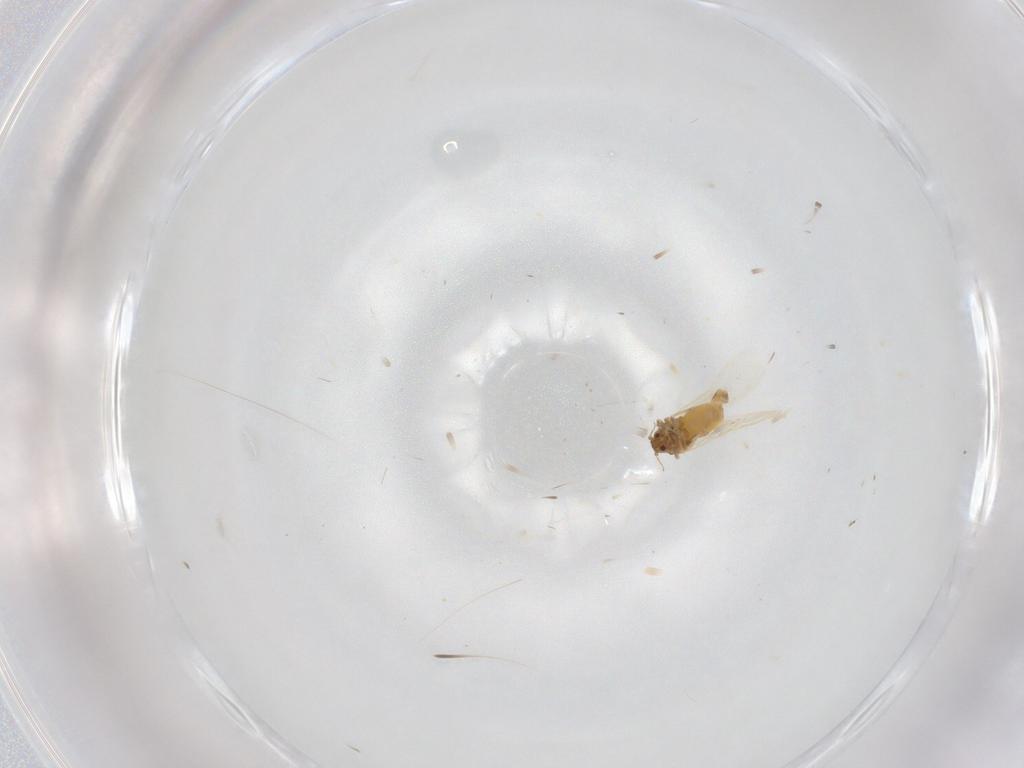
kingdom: Animalia
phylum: Arthropoda
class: Insecta
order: Hemiptera
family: Aleyrodidae
